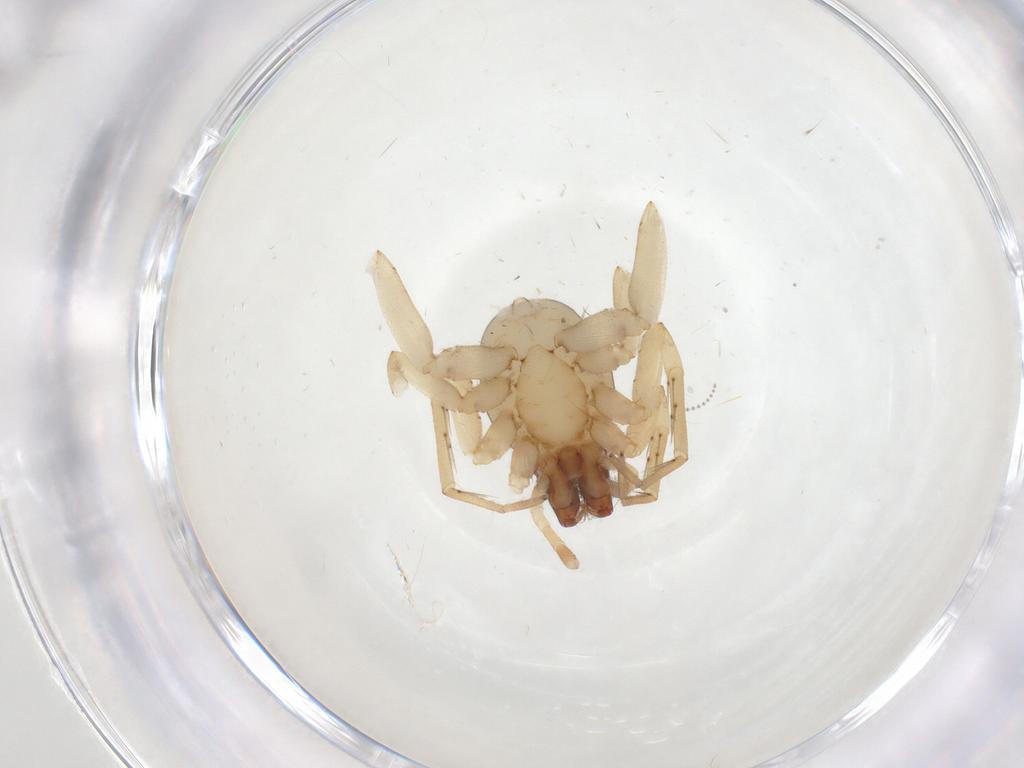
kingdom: Animalia
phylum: Arthropoda
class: Arachnida
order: Araneae
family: Clubionidae
